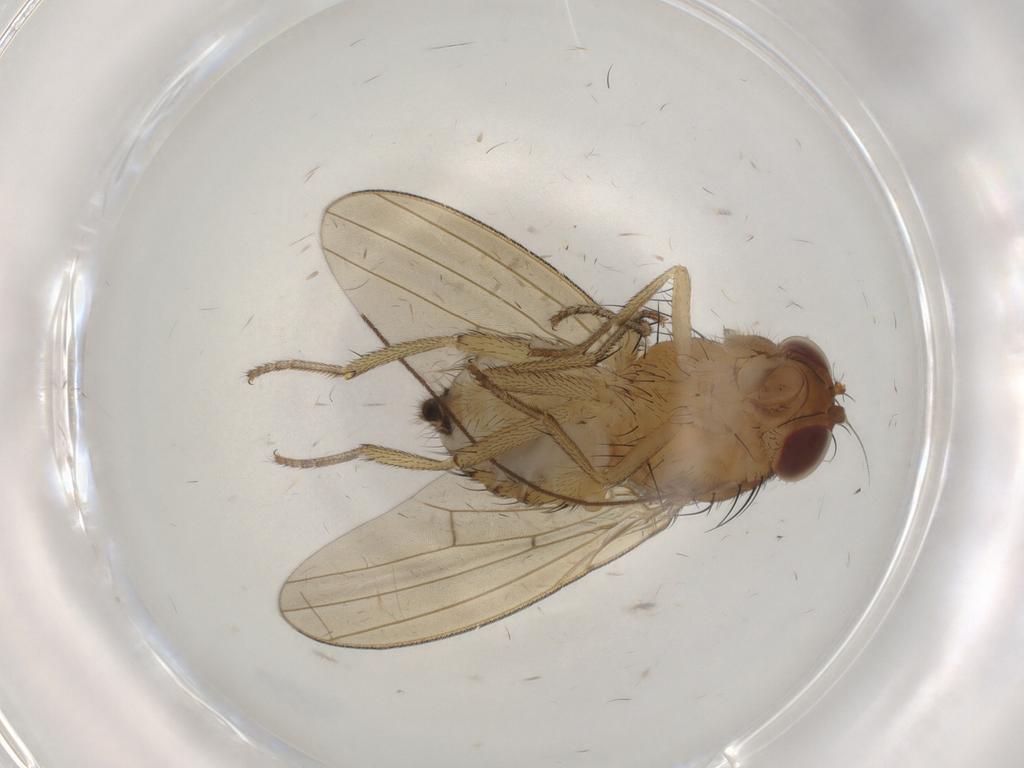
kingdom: Animalia
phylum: Arthropoda
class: Insecta
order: Diptera
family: Limoniidae
